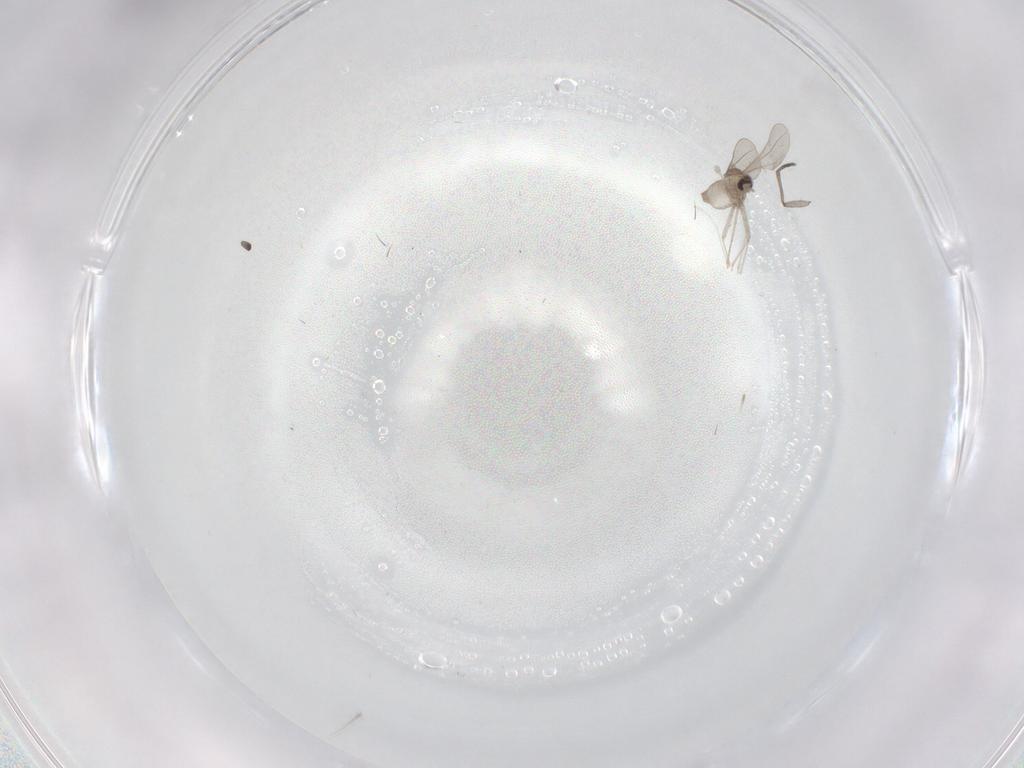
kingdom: Animalia
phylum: Arthropoda
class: Insecta
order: Diptera
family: Sciaridae
